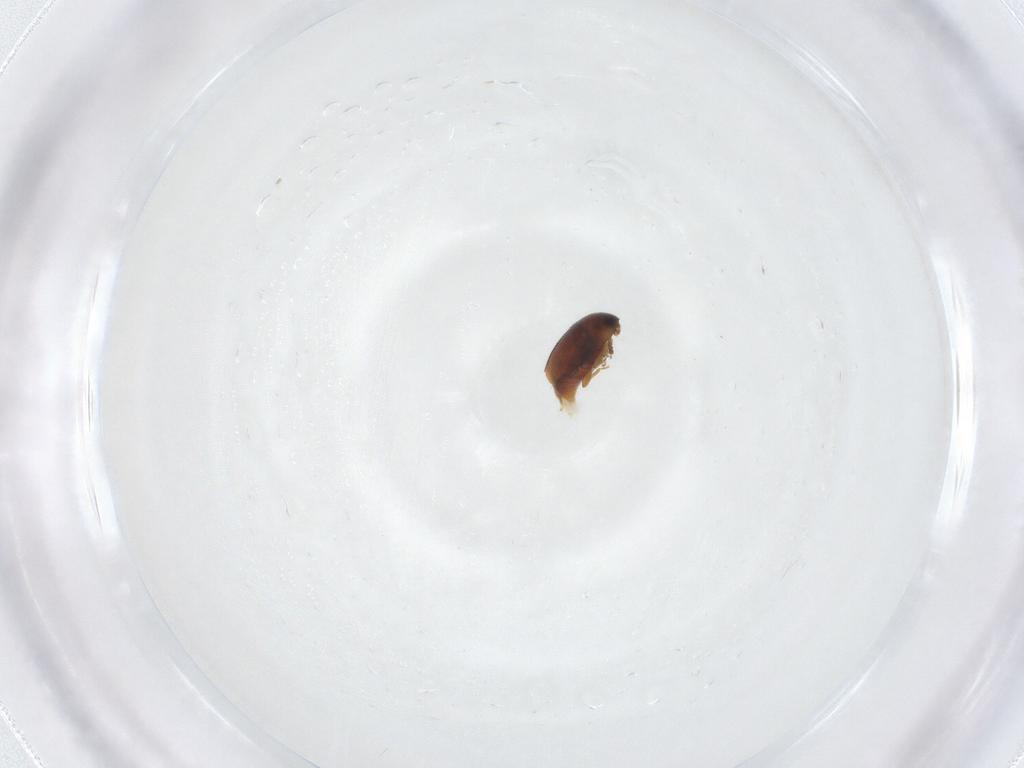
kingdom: Animalia
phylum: Arthropoda
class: Insecta
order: Coleoptera
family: Corylophidae
